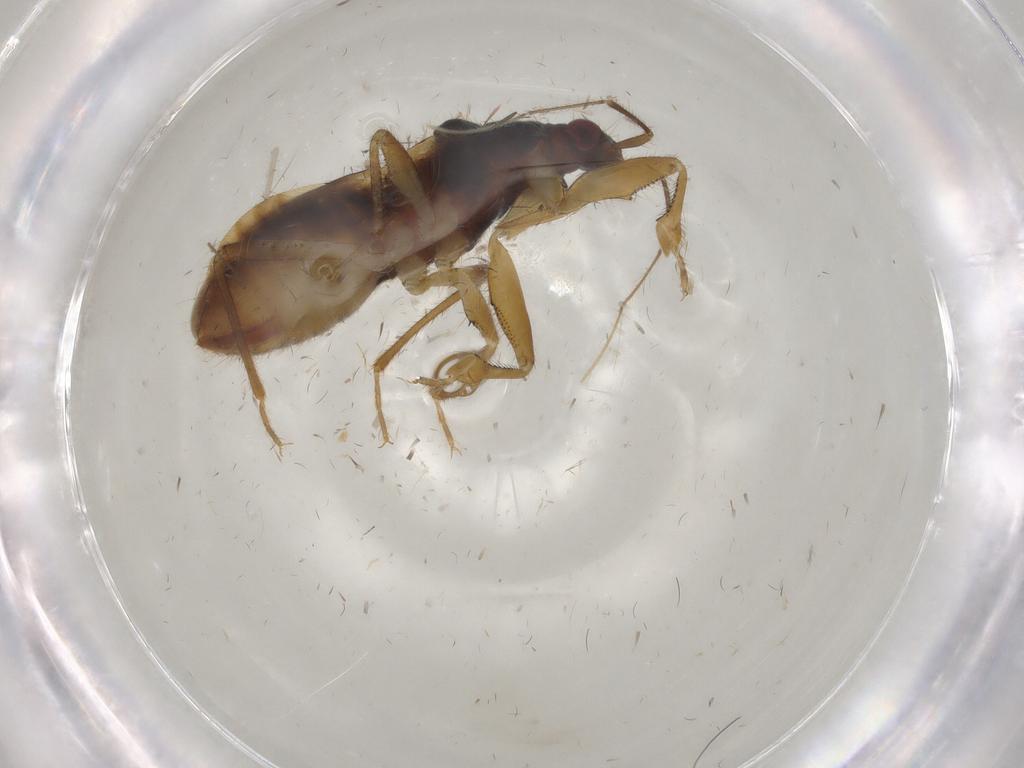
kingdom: Animalia
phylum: Arthropoda
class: Insecta
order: Hemiptera
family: Nabidae
